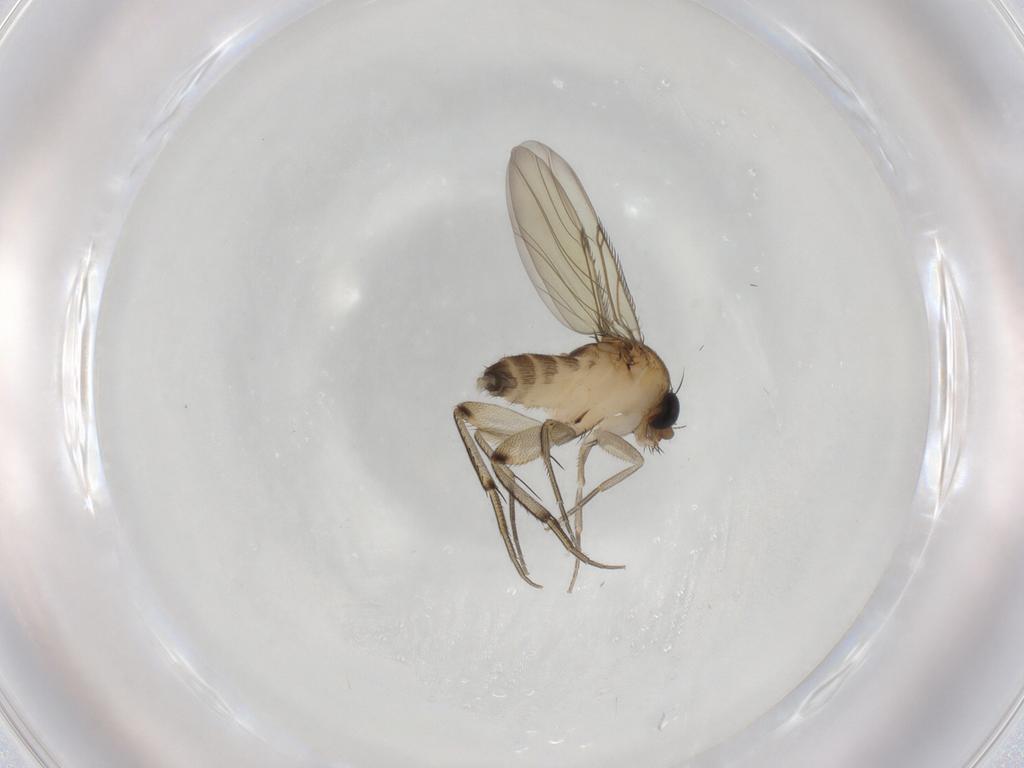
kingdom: Animalia
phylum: Arthropoda
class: Insecta
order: Diptera
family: Phoridae
